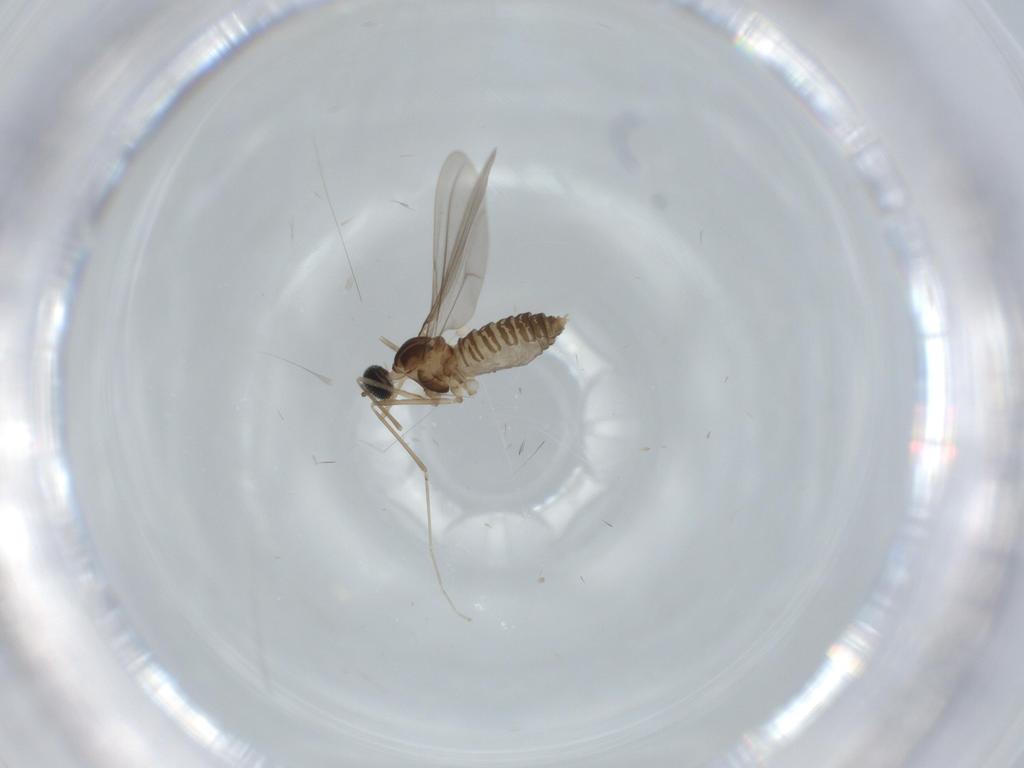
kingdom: Animalia
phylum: Arthropoda
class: Insecta
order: Diptera
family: Cecidomyiidae
